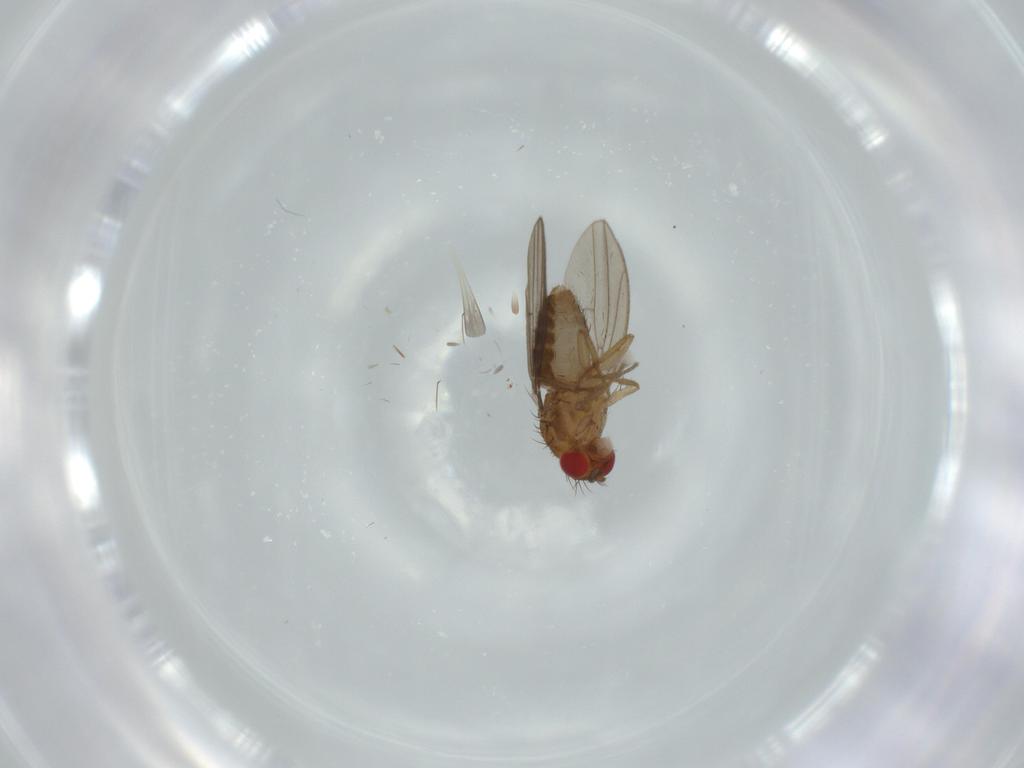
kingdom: Animalia
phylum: Arthropoda
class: Insecta
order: Diptera
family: Drosophilidae
